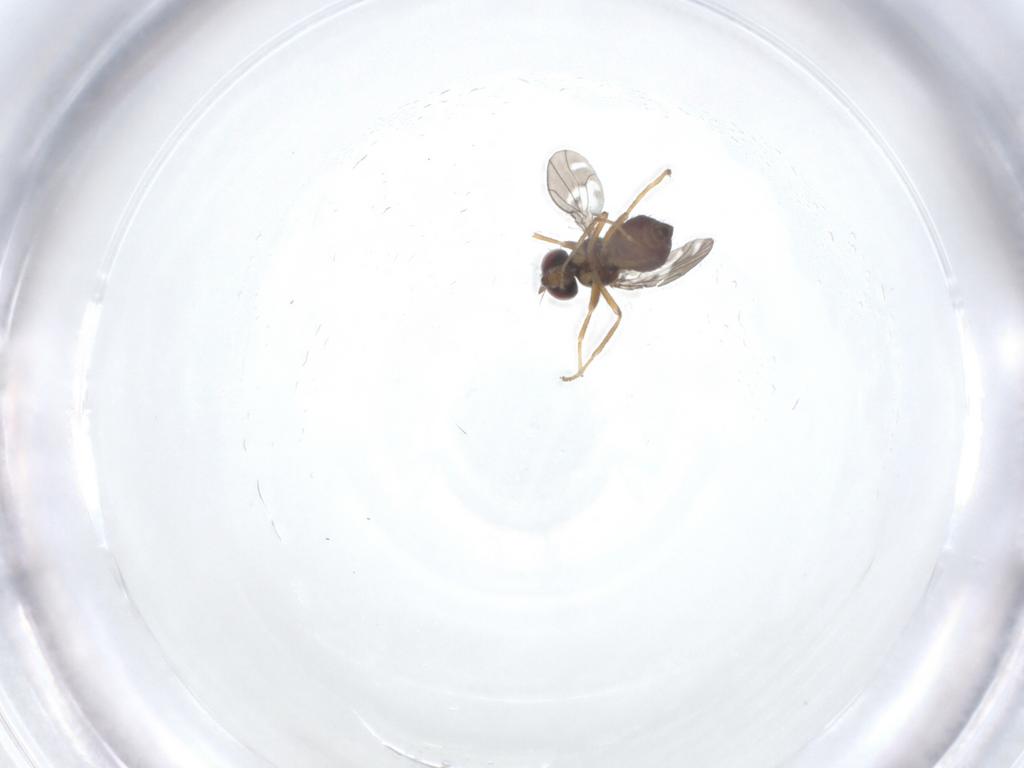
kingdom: Animalia
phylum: Arthropoda
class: Insecta
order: Diptera
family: Ephydridae
